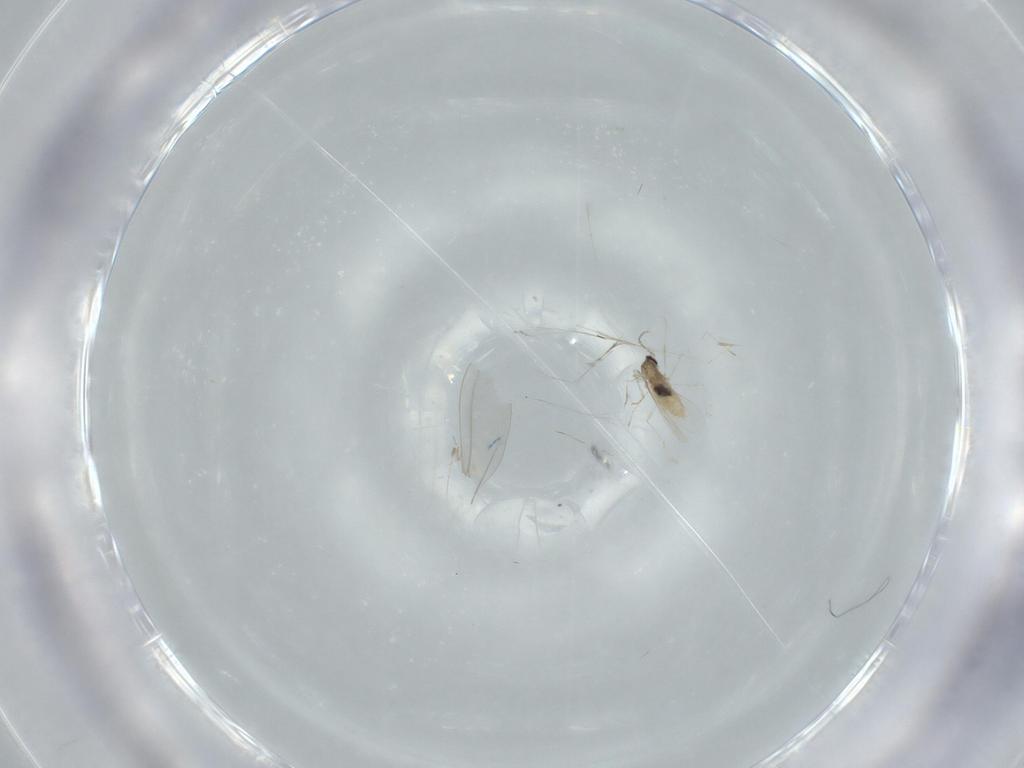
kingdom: Animalia
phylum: Arthropoda
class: Insecta
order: Diptera
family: Cecidomyiidae
